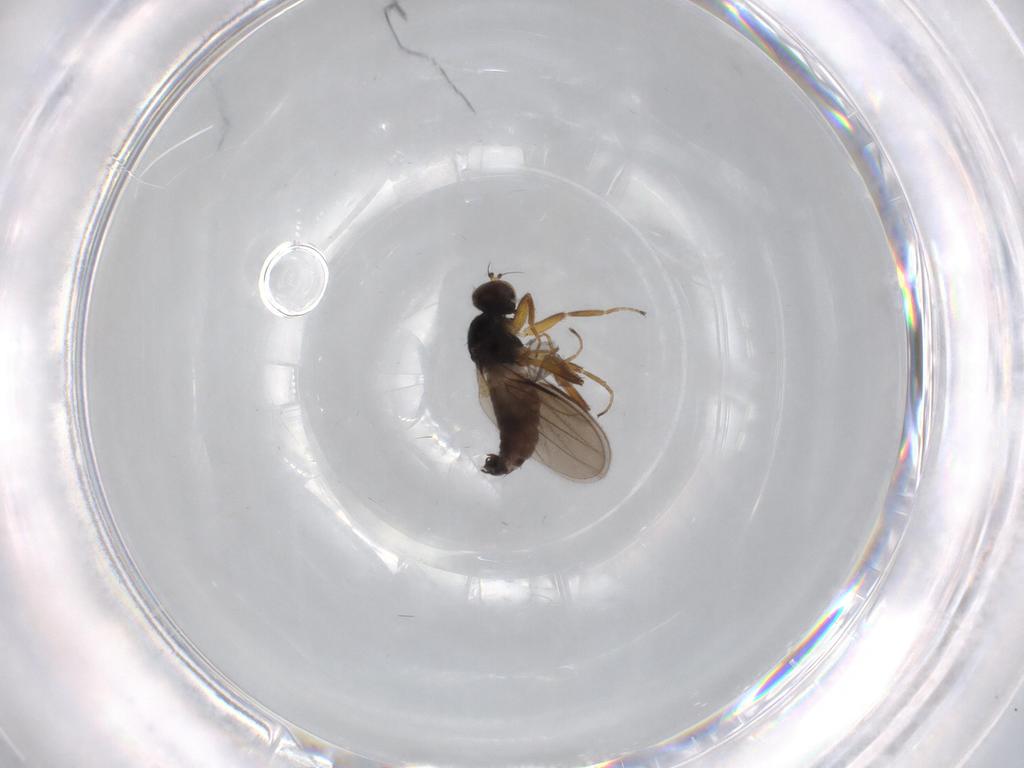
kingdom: Animalia
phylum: Arthropoda
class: Insecta
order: Diptera
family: Hybotidae
